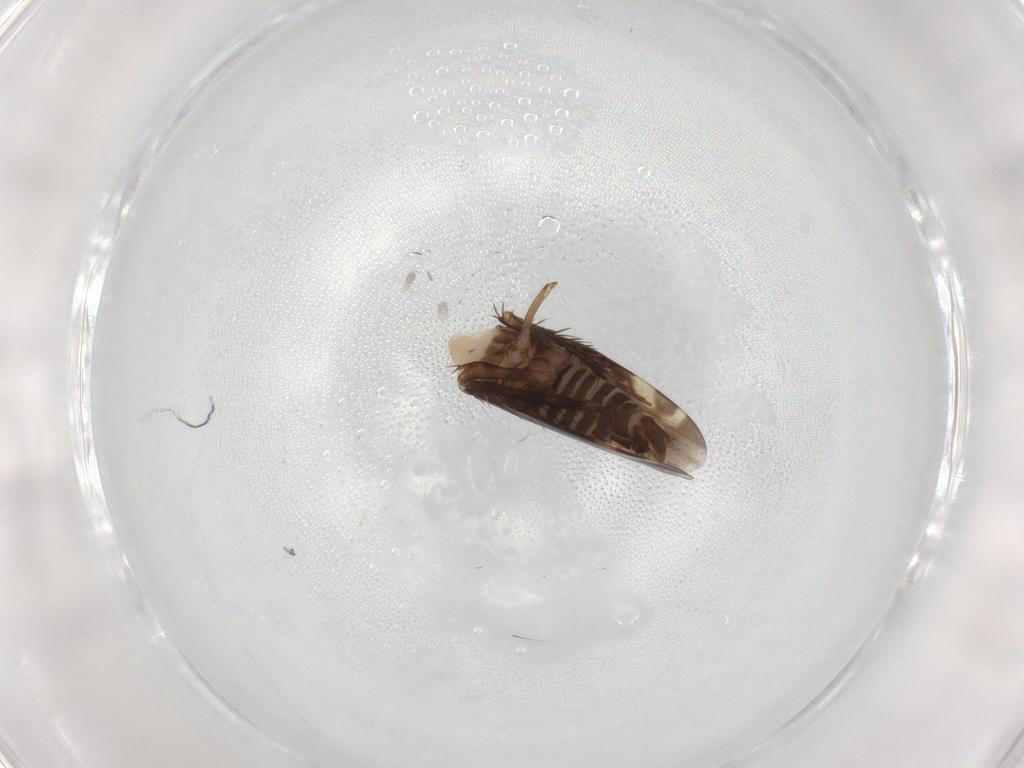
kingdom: Animalia
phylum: Arthropoda
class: Insecta
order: Hemiptera
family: Cicadellidae
